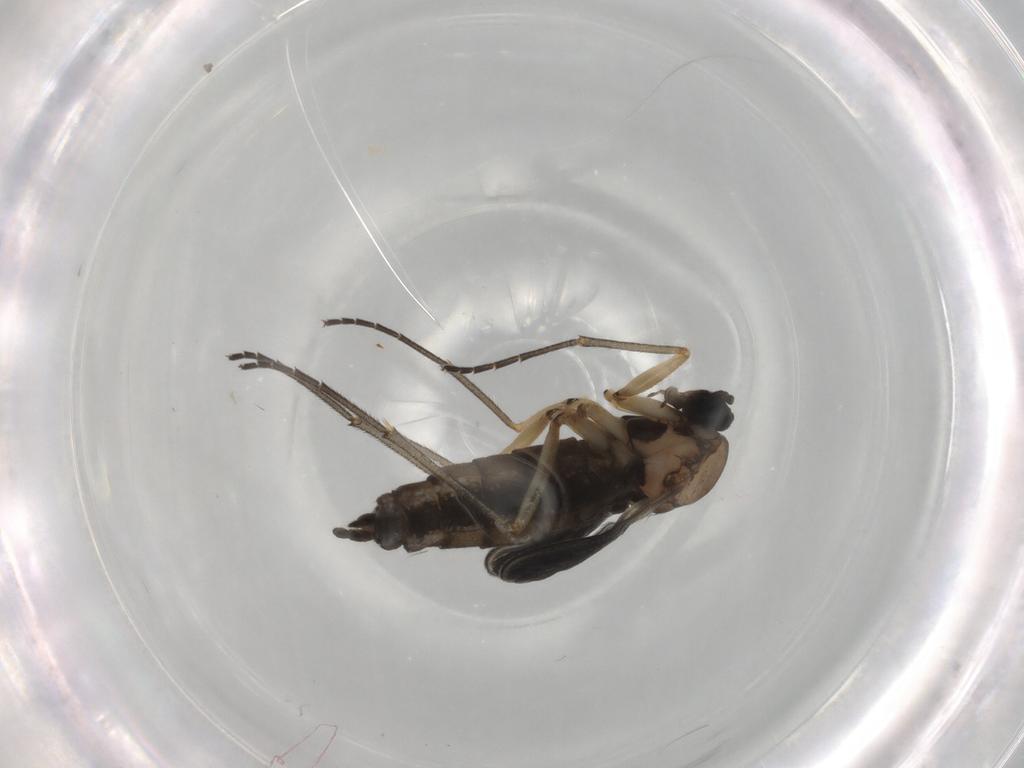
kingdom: Animalia
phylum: Arthropoda
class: Insecta
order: Diptera
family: Sciaridae
